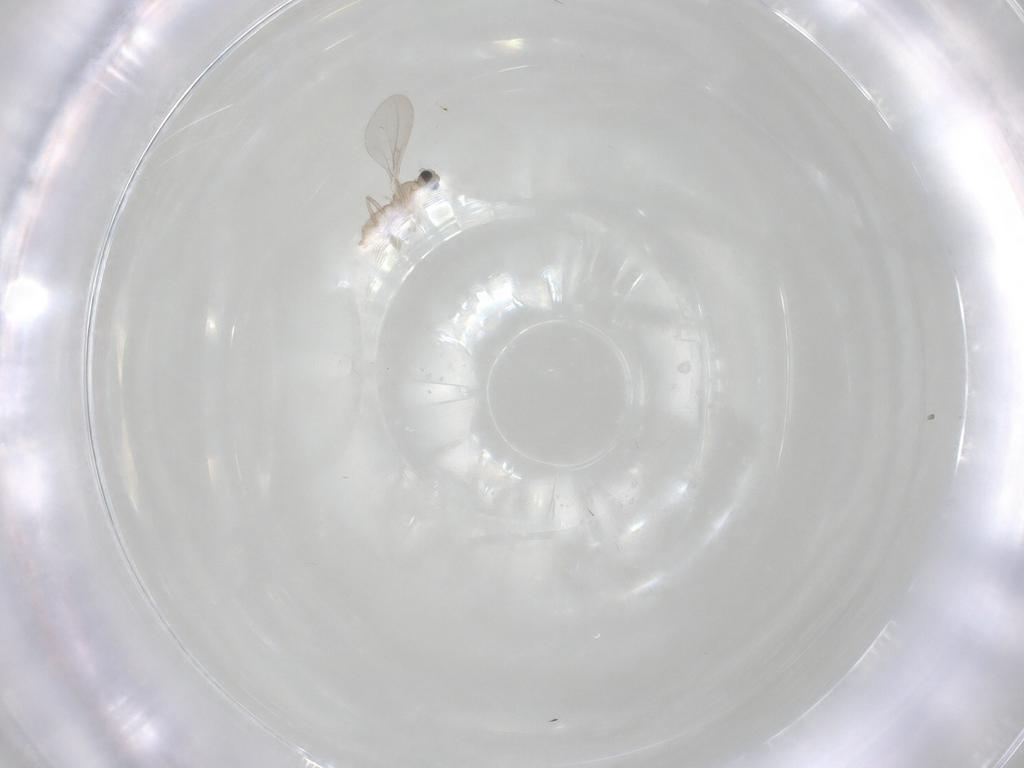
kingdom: Animalia
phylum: Arthropoda
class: Insecta
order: Diptera
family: Cecidomyiidae
